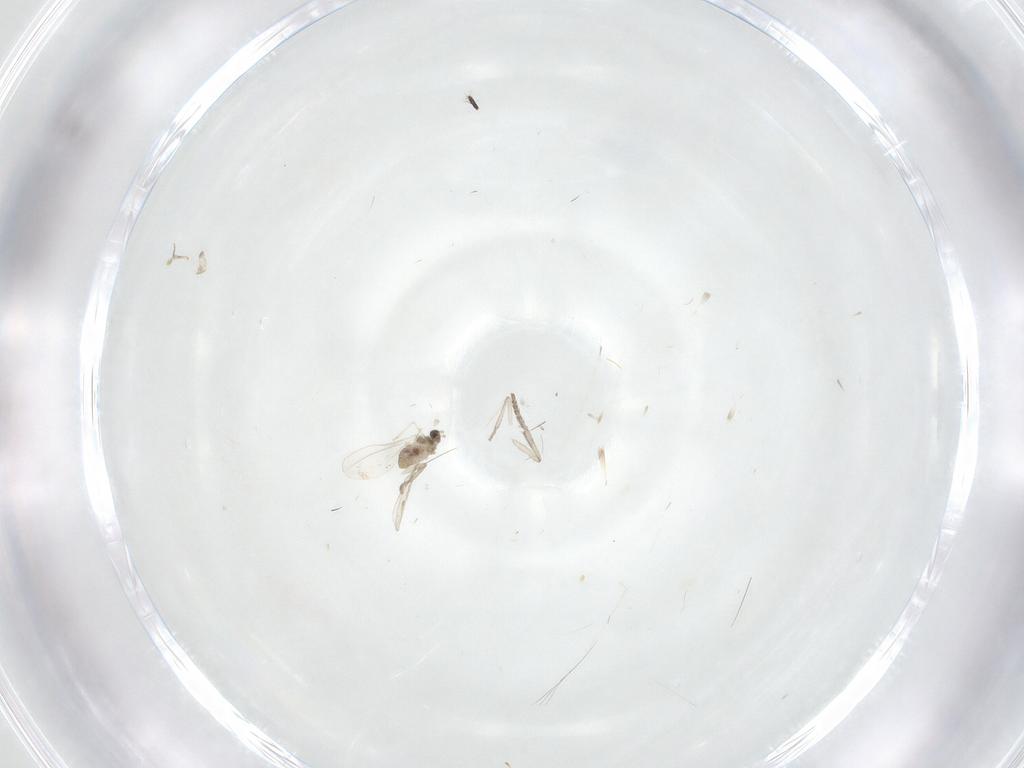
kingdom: Animalia
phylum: Arthropoda
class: Insecta
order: Diptera
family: Cecidomyiidae
